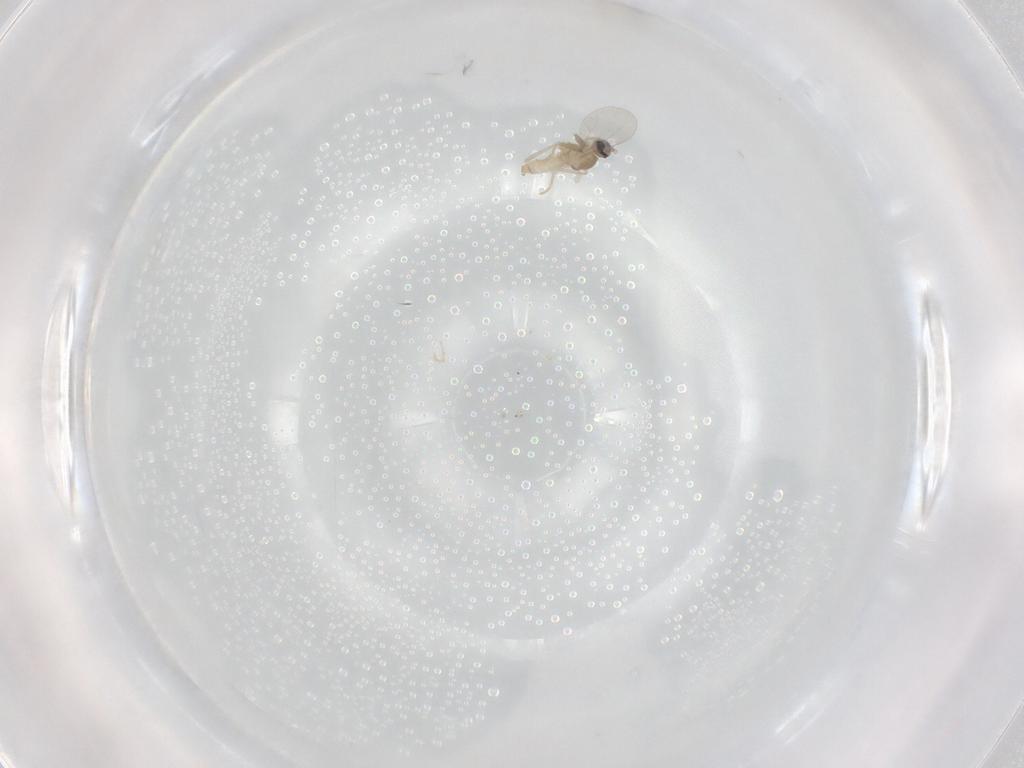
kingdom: Animalia
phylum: Arthropoda
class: Insecta
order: Diptera
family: Cecidomyiidae
